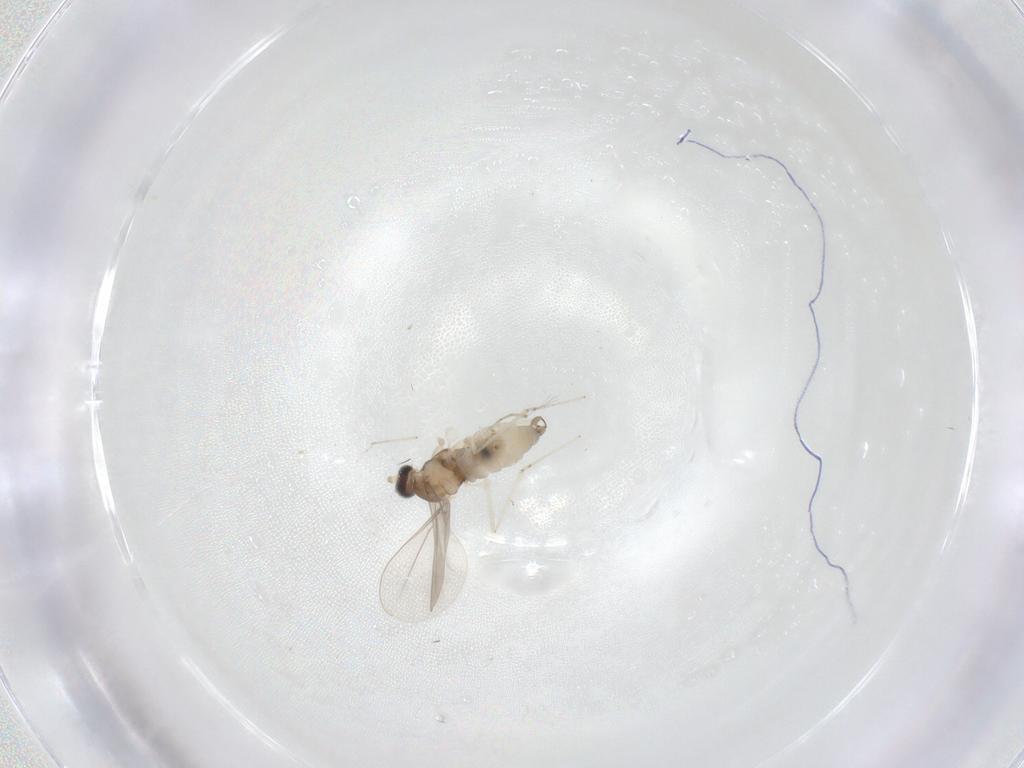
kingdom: Animalia
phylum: Arthropoda
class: Insecta
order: Diptera
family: Cecidomyiidae
